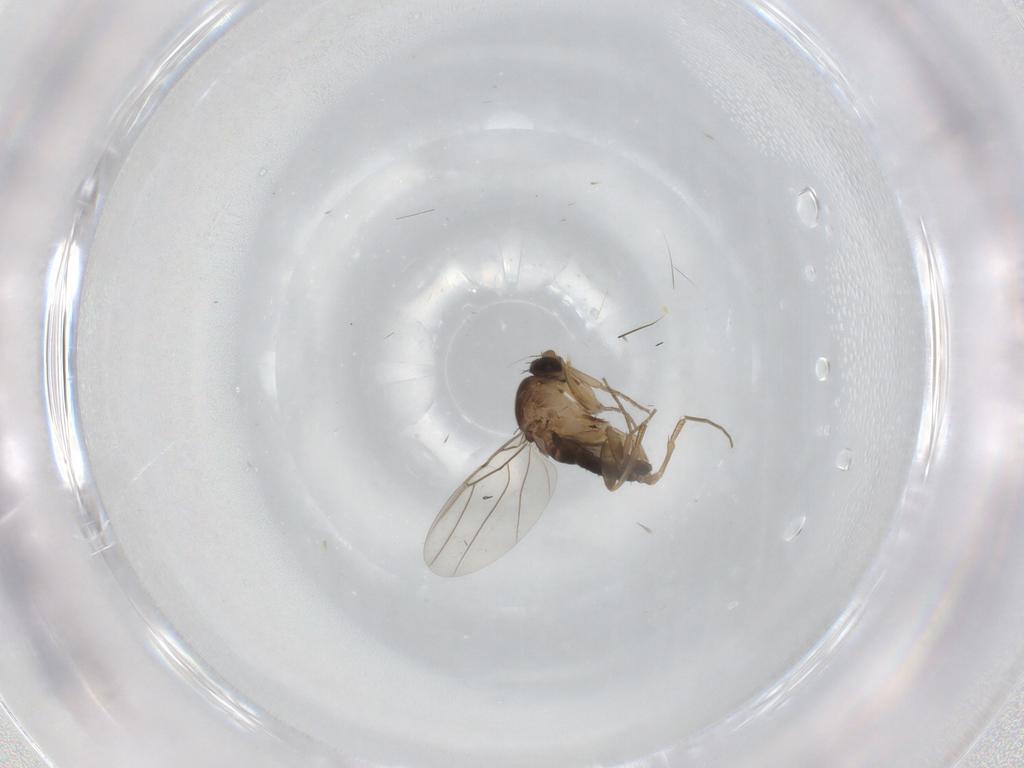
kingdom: Animalia
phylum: Arthropoda
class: Insecta
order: Diptera
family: Phoridae
